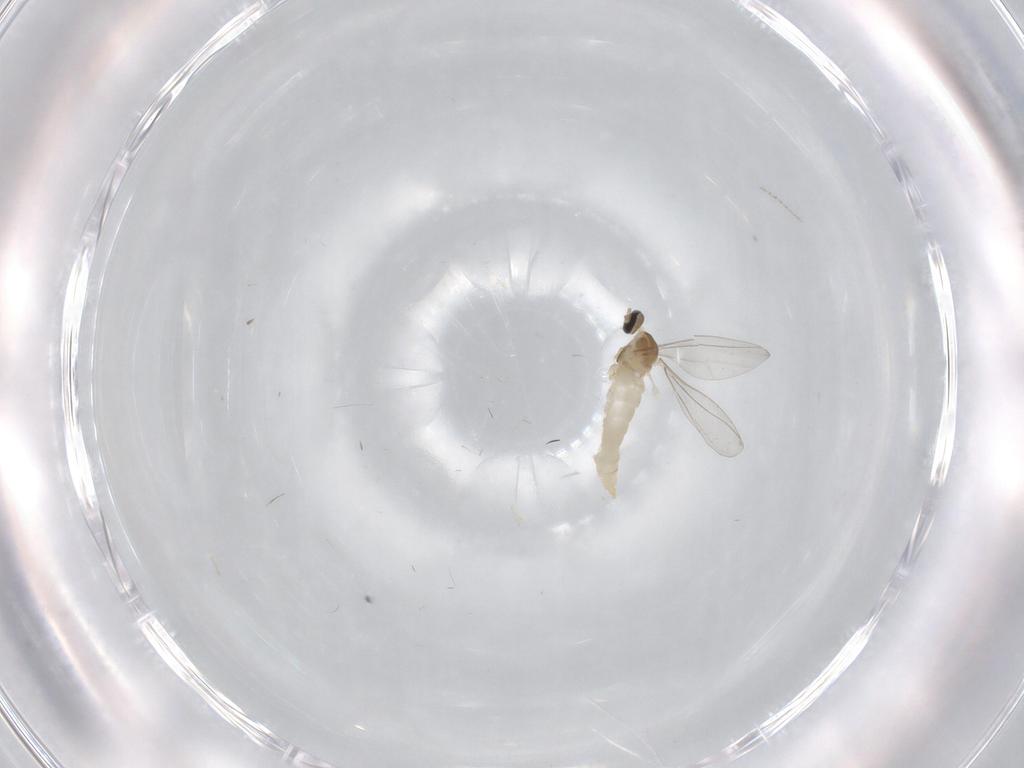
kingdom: Animalia
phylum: Arthropoda
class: Insecta
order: Diptera
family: Cecidomyiidae
